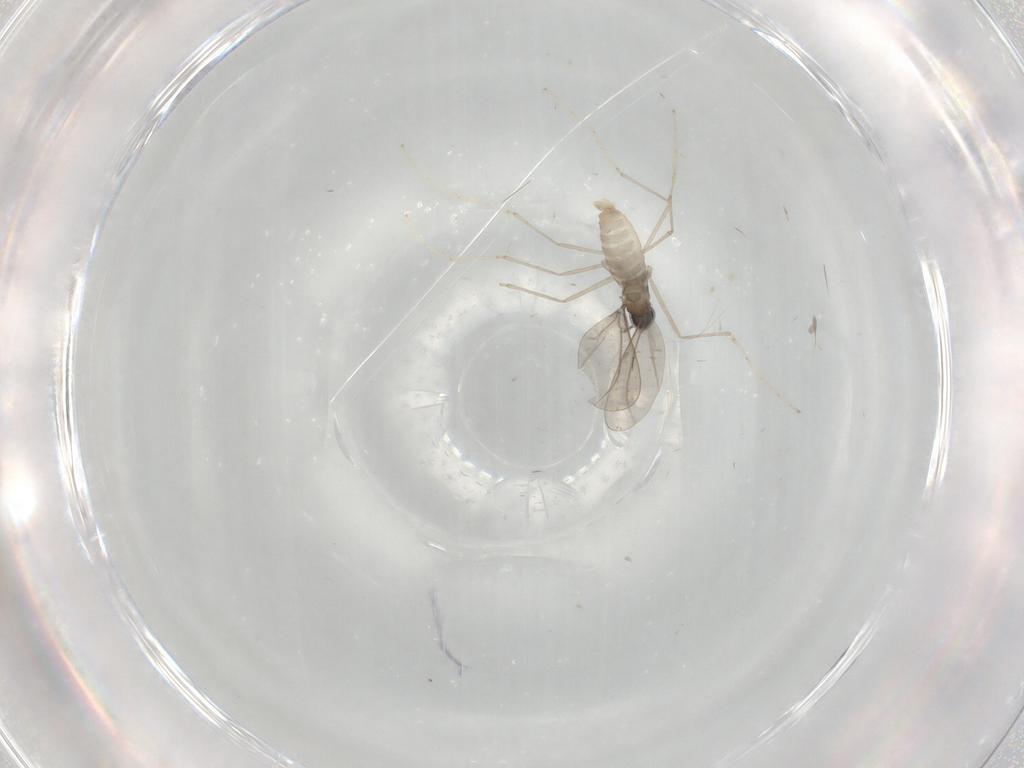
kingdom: Animalia
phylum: Arthropoda
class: Insecta
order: Diptera
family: Cecidomyiidae
